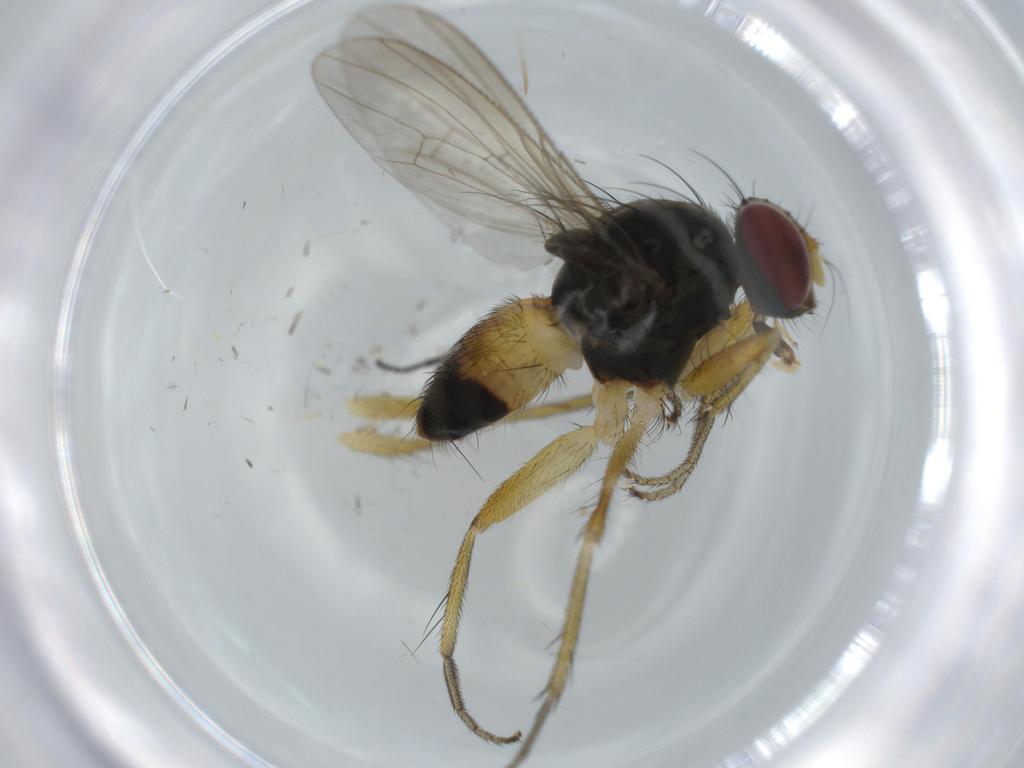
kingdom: Animalia
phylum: Arthropoda
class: Insecta
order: Diptera
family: Muscidae
